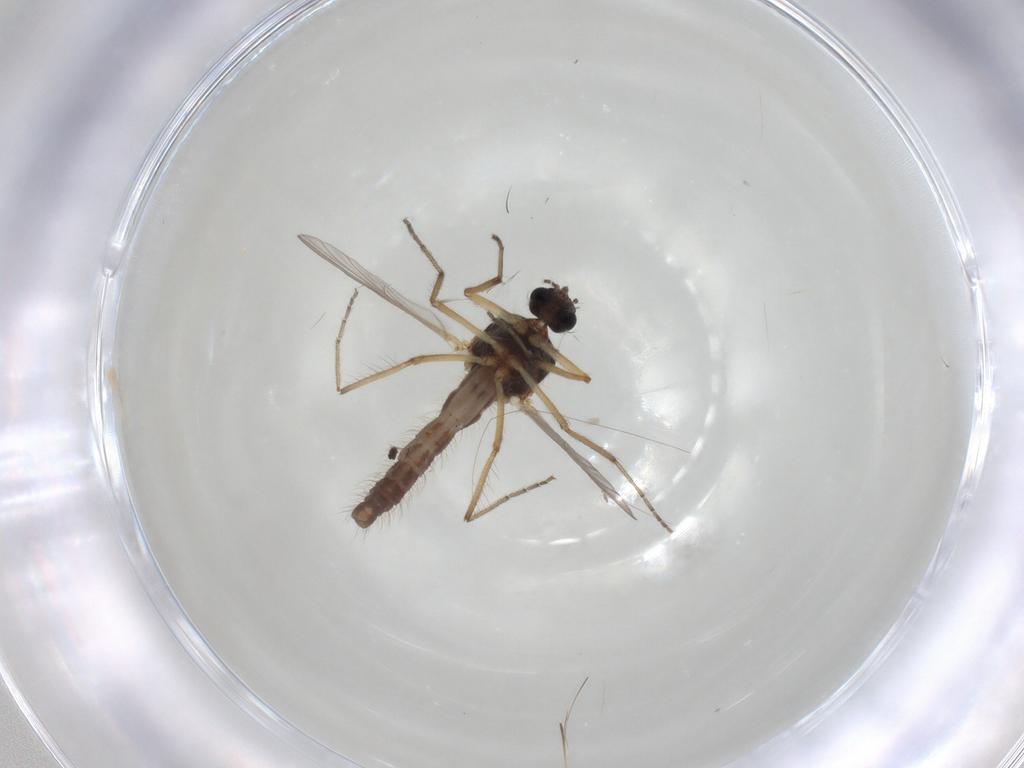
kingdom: Animalia
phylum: Arthropoda
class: Insecta
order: Diptera
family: Ceratopogonidae
